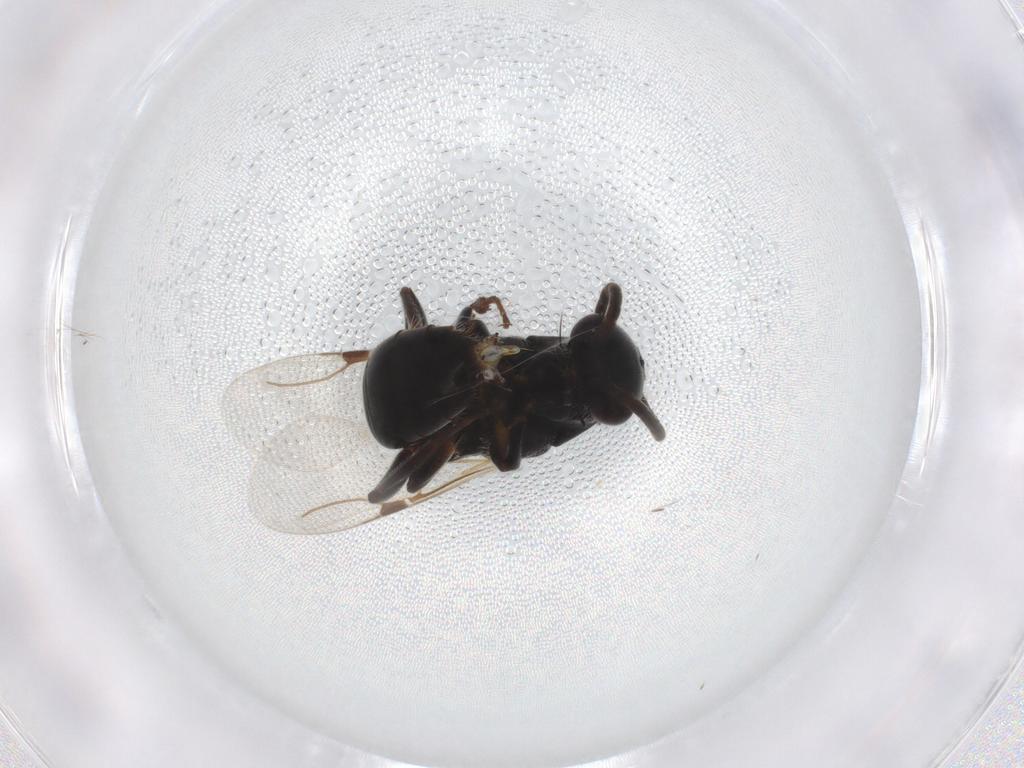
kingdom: Animalia
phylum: Arthropoda
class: Insecta
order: Hymenoptera
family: Bethylidae
